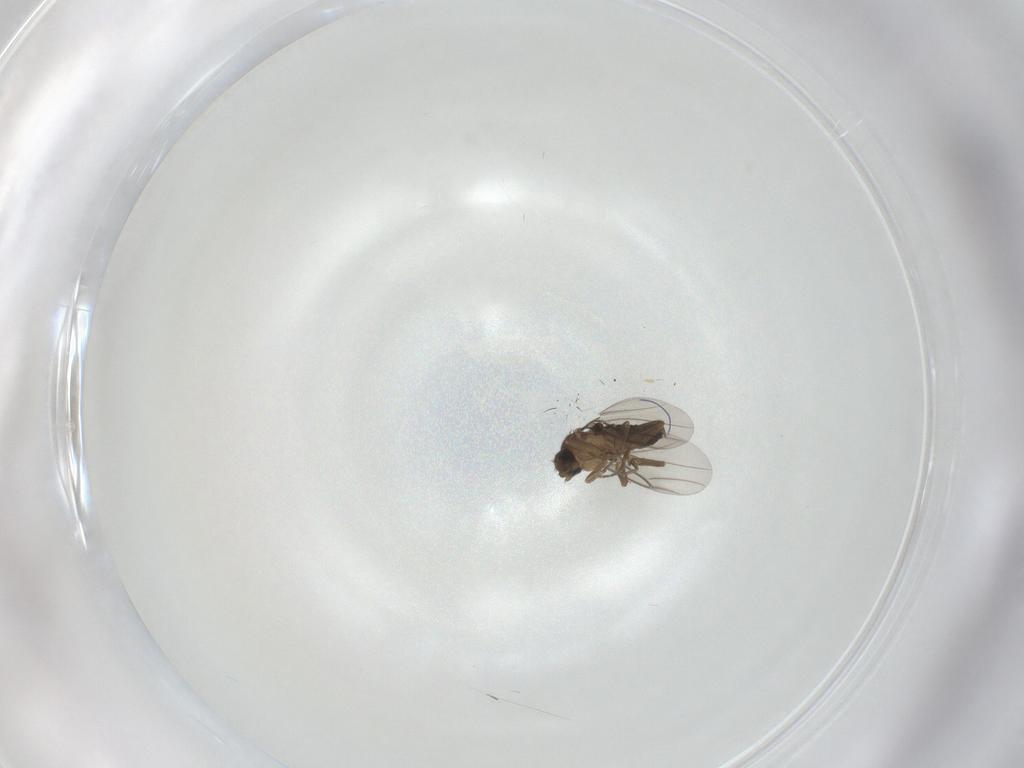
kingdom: Animalia
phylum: Arthropoda
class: Insecta
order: Diptera
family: Phoridae
